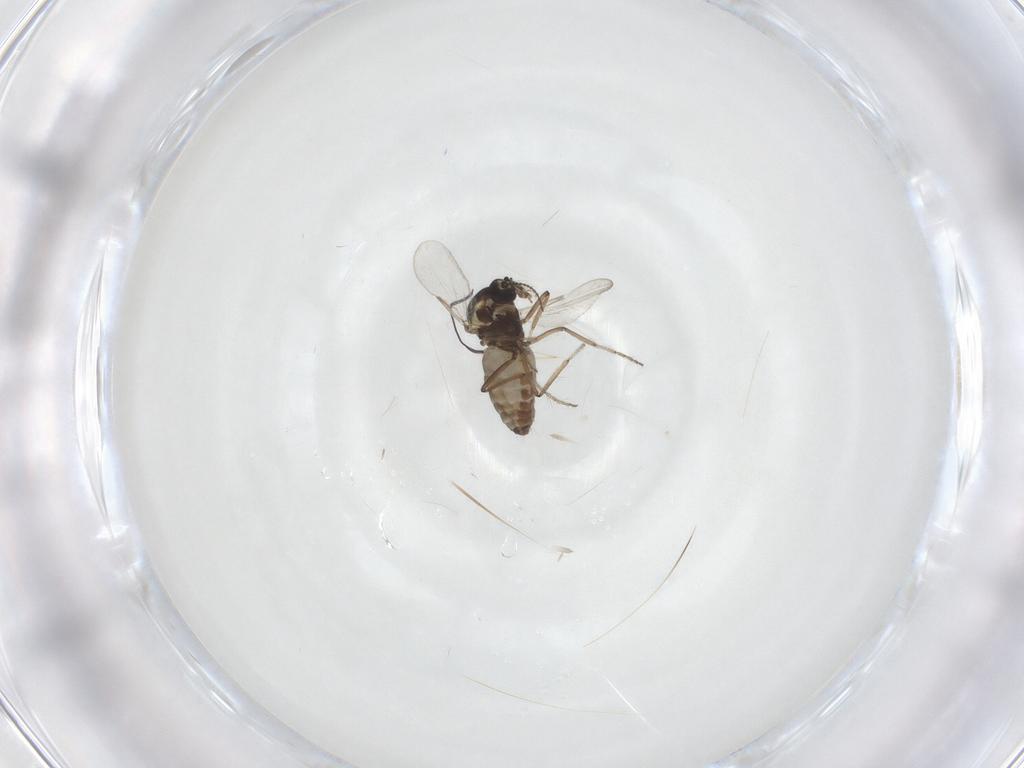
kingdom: Animalia
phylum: Arthropoda
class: Insecta
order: Diptera
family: Ceratopogonidae
